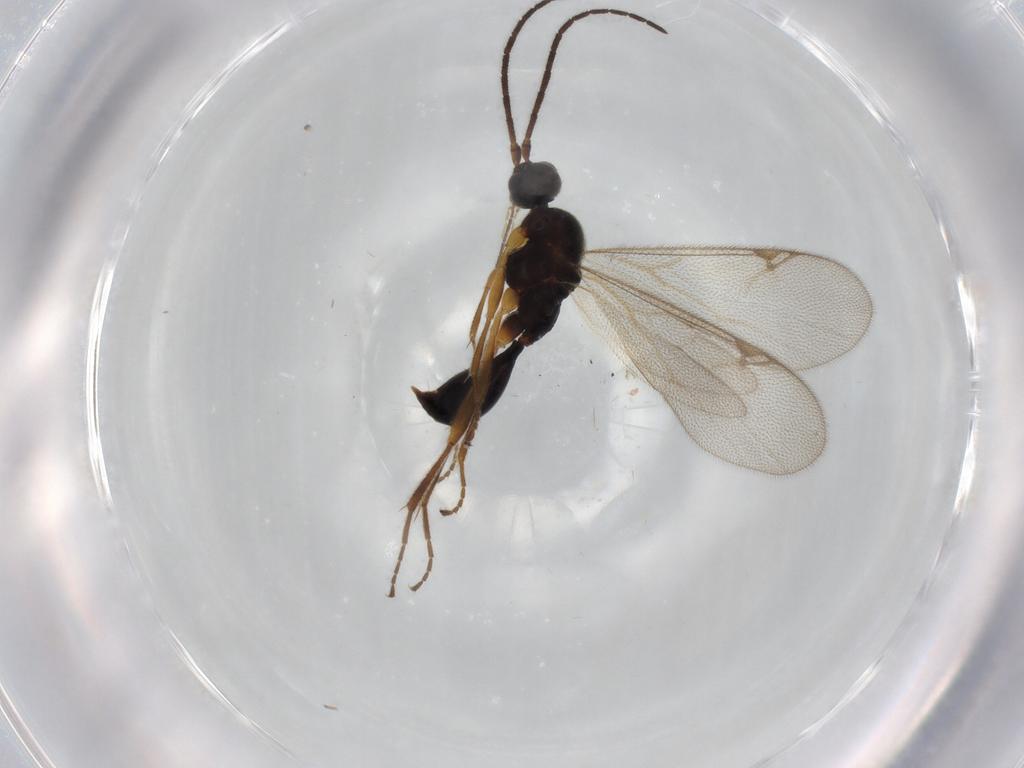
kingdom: Animalia
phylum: Arthropoda
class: Insecta
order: Hymenoptera
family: Proctotrupidae
